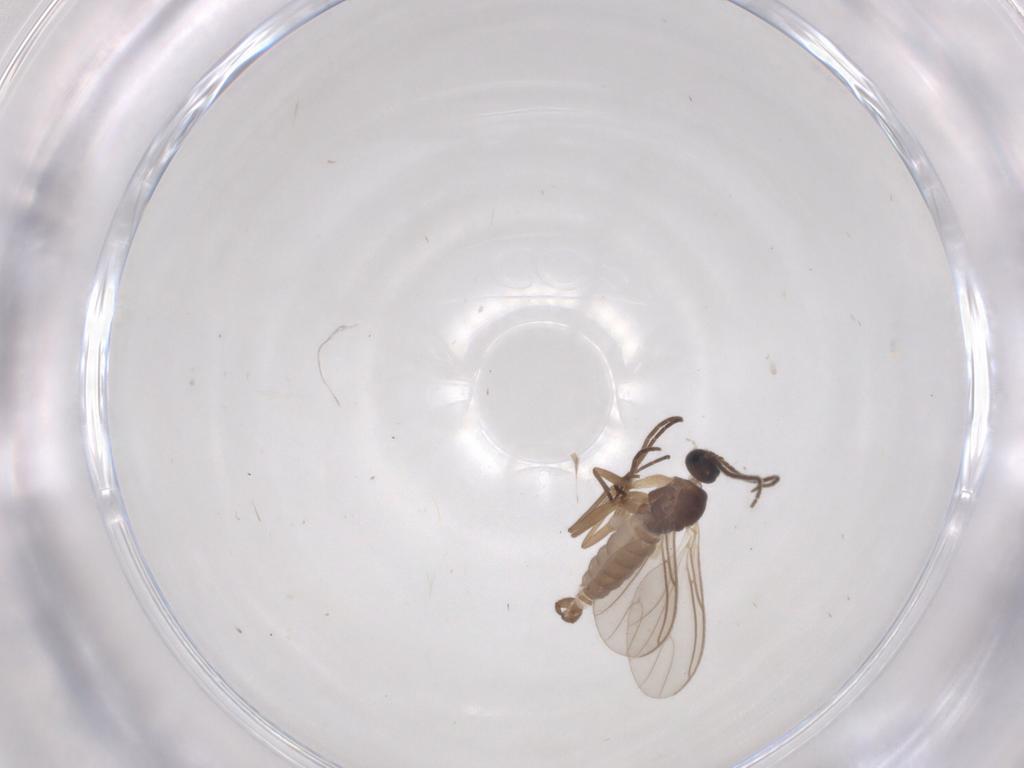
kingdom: Animalia
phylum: Arthropoda
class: Insecta
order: Diptera
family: Sciaridae
